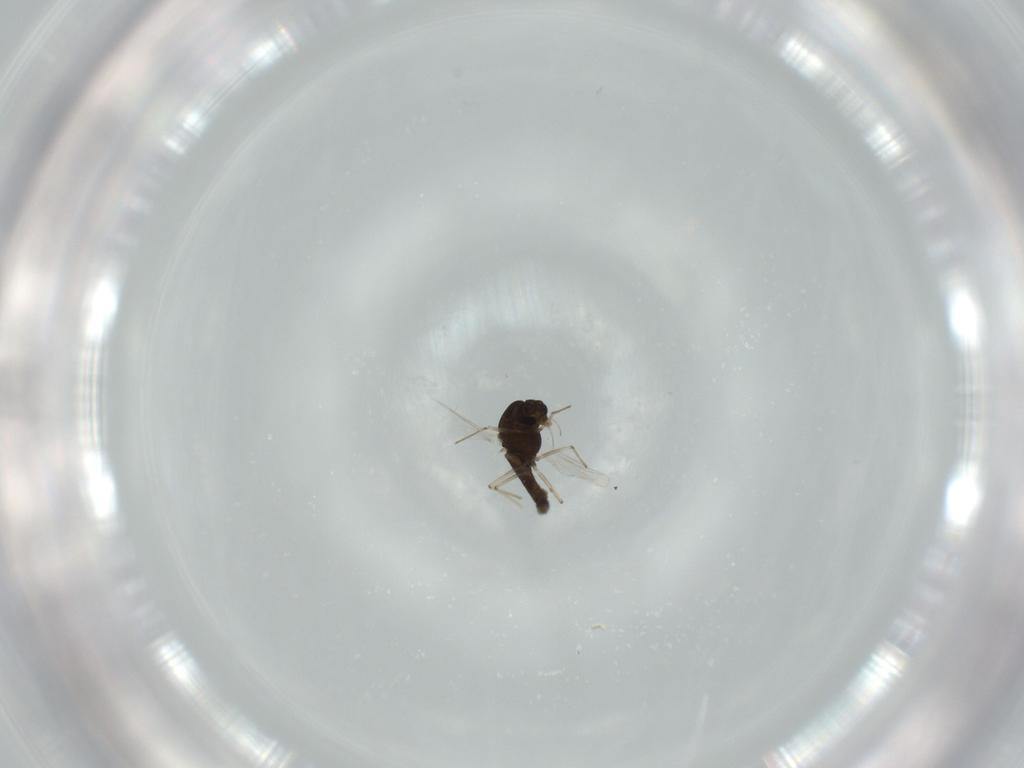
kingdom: Animalia
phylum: Arthropoda
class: Insecta
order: Diptera
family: Chironomidae
